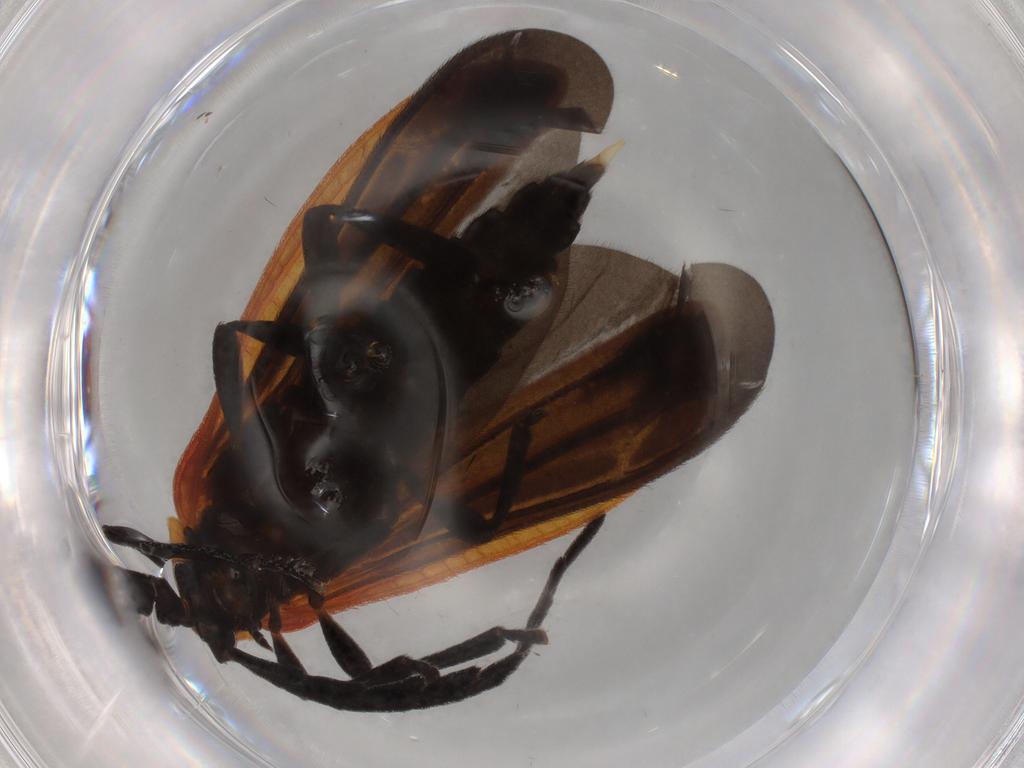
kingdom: Animalia
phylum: Arthropoda
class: Insecta
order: Coleoptera
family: Lycidae
